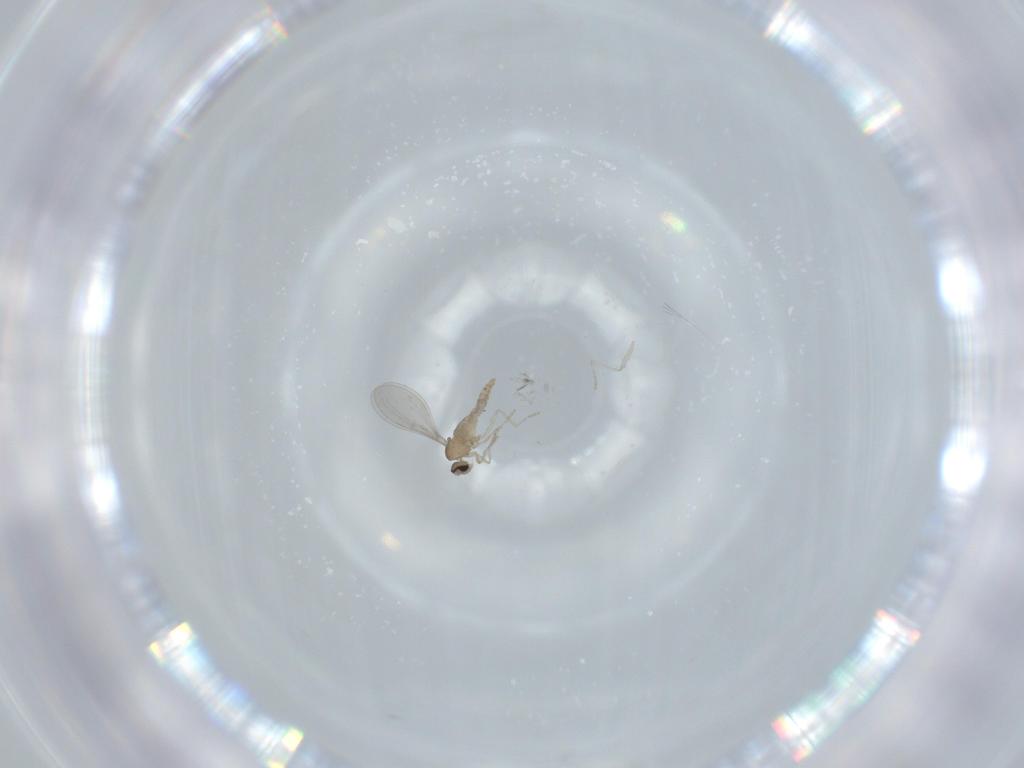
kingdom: Animalia
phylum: Arthropoda
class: Insecta
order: Diptera
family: Cecidomyiidae
